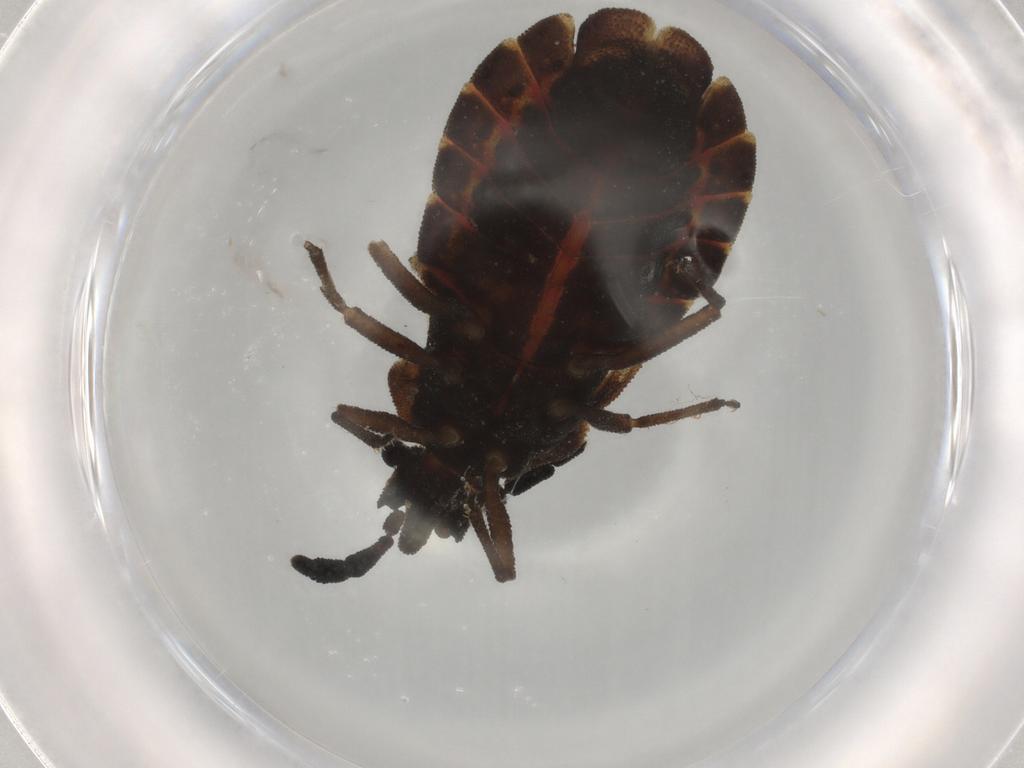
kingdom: Animalia
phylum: Arthropoda
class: Insecta
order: Hemiptera
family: Aradidae
